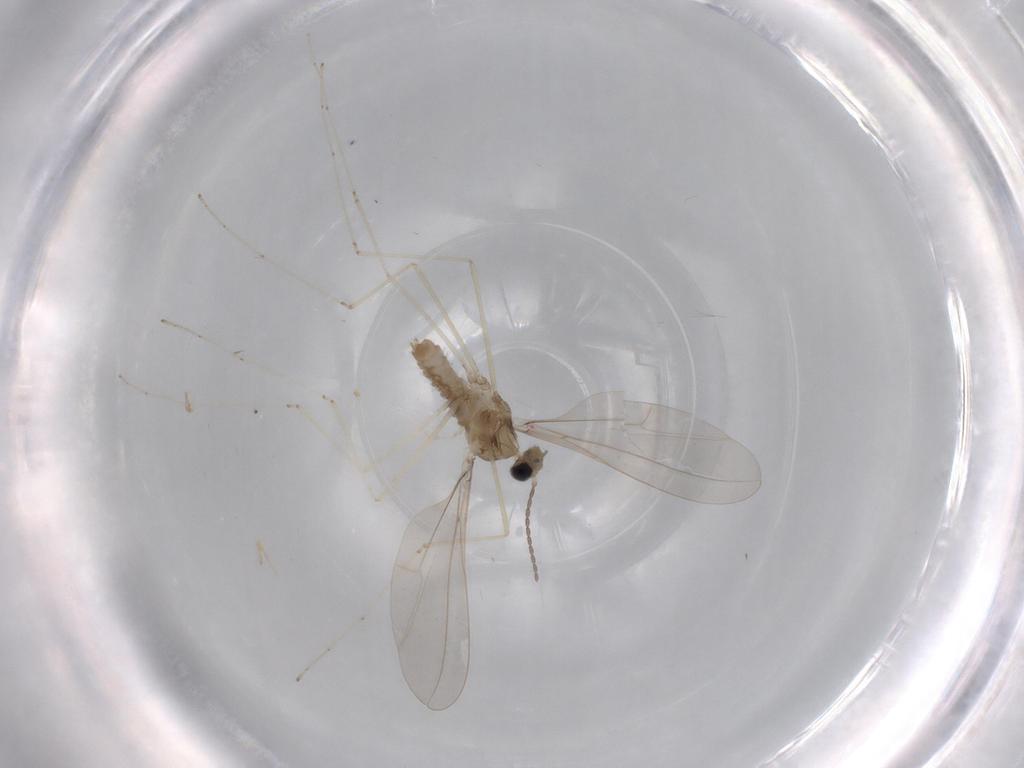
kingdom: Animalia
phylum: Arthropoda
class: Insecta
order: Diptera
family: Cecidomyiidae
